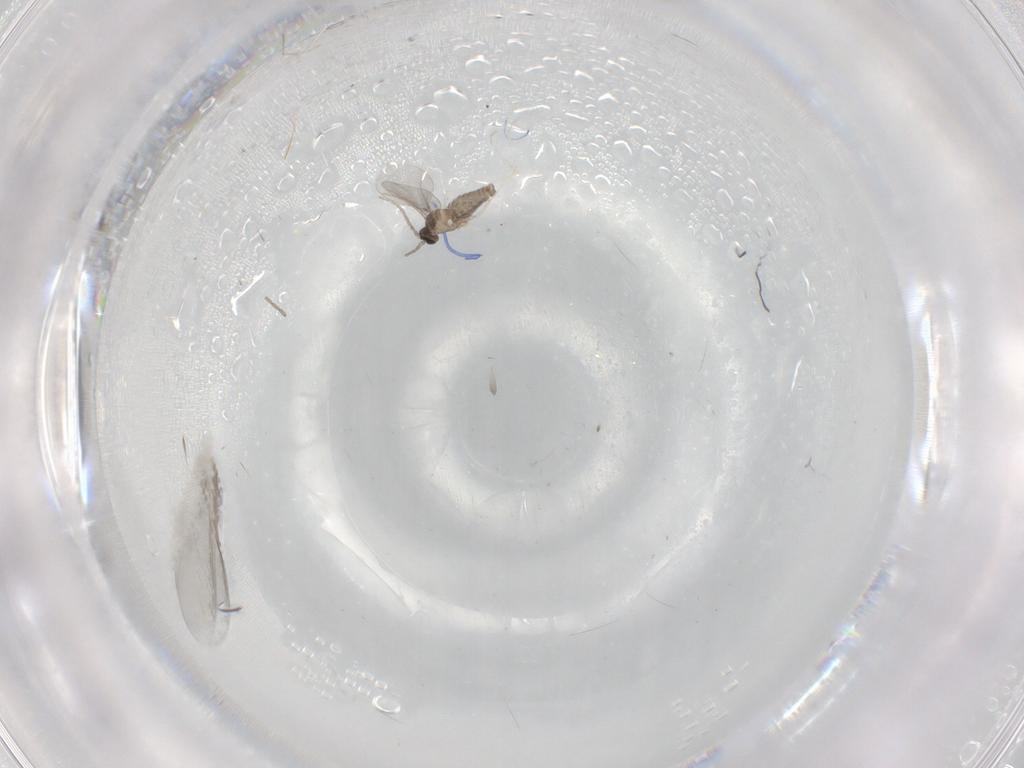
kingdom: Animalia
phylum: Arthropoda
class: Insecta
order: Diptera
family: Cecidomyiidae
